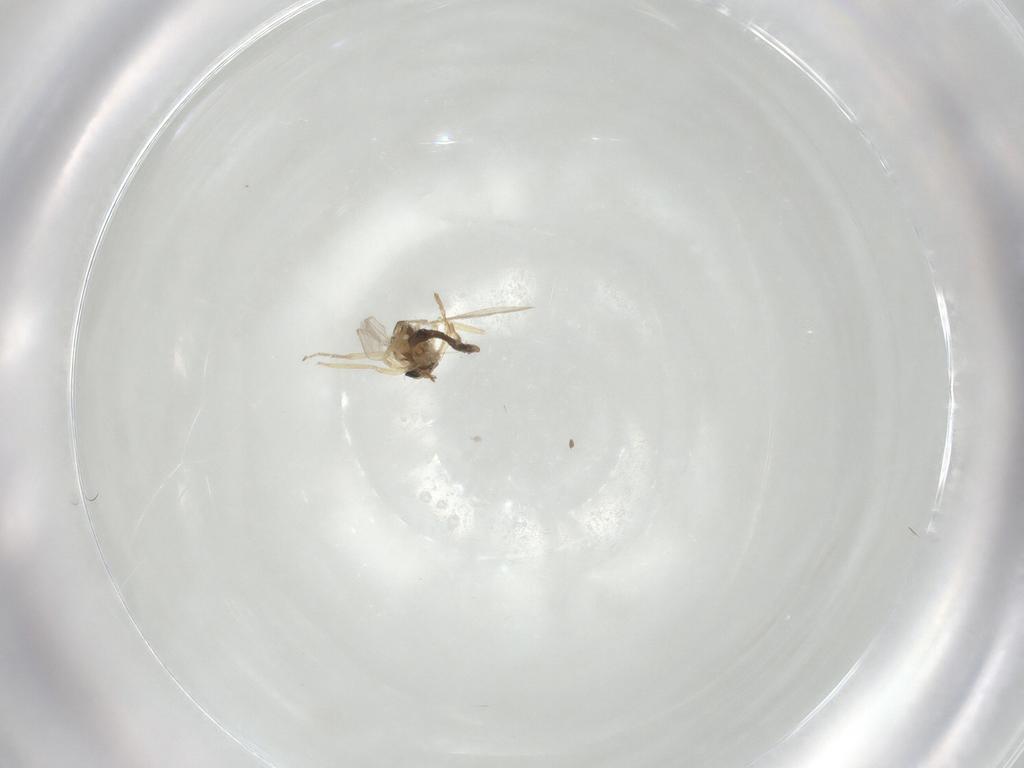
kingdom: Animalia
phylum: Arthropoda
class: Insecta
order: Diptera
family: Ceratopogonidae
